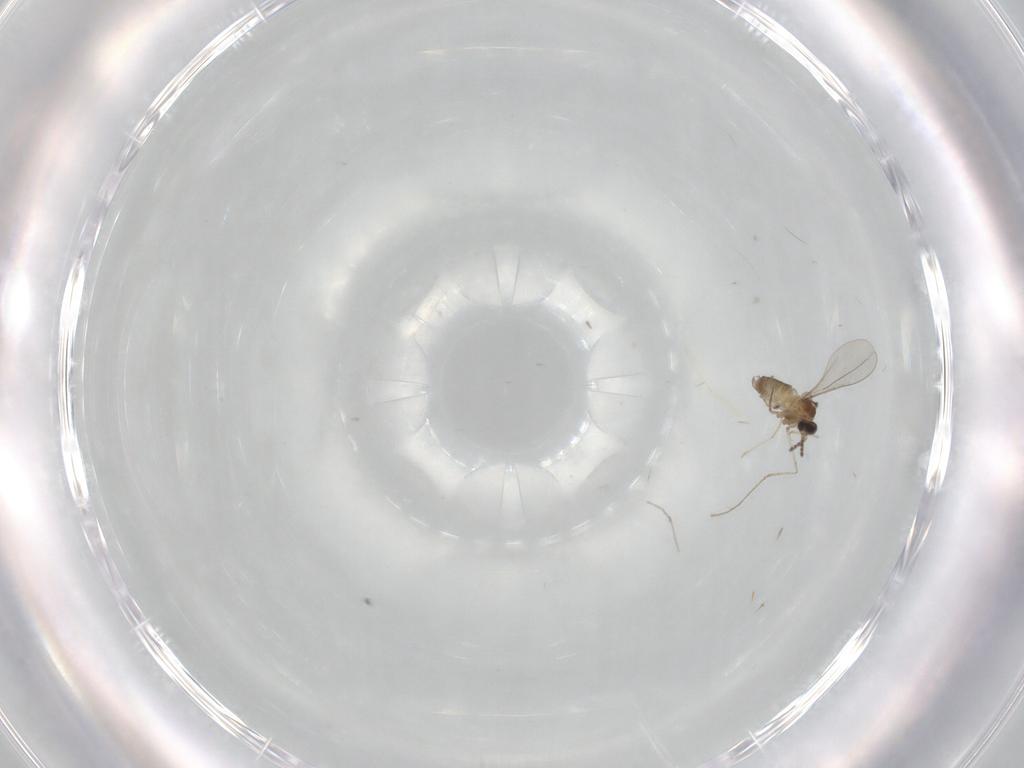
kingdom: Animalia
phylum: Arthropoda
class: Insecta
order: Diptera
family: Cecidomyiidae
